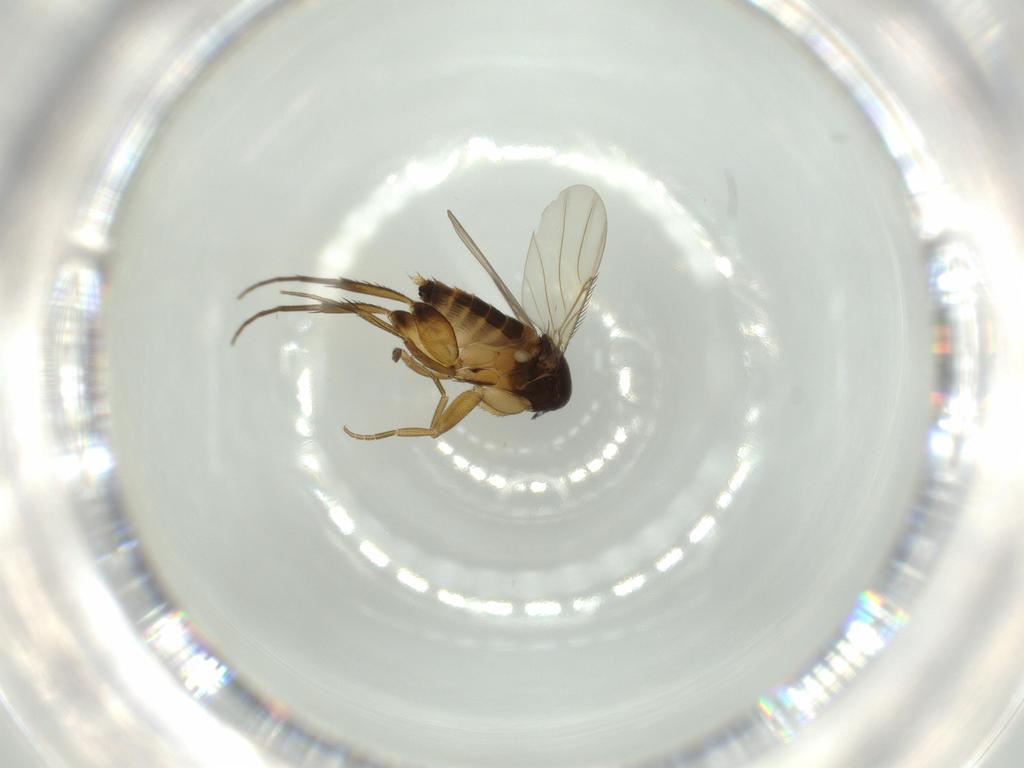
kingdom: Animalia
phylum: Arthropoda
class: Insecta
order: Diptera
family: Phoridae
